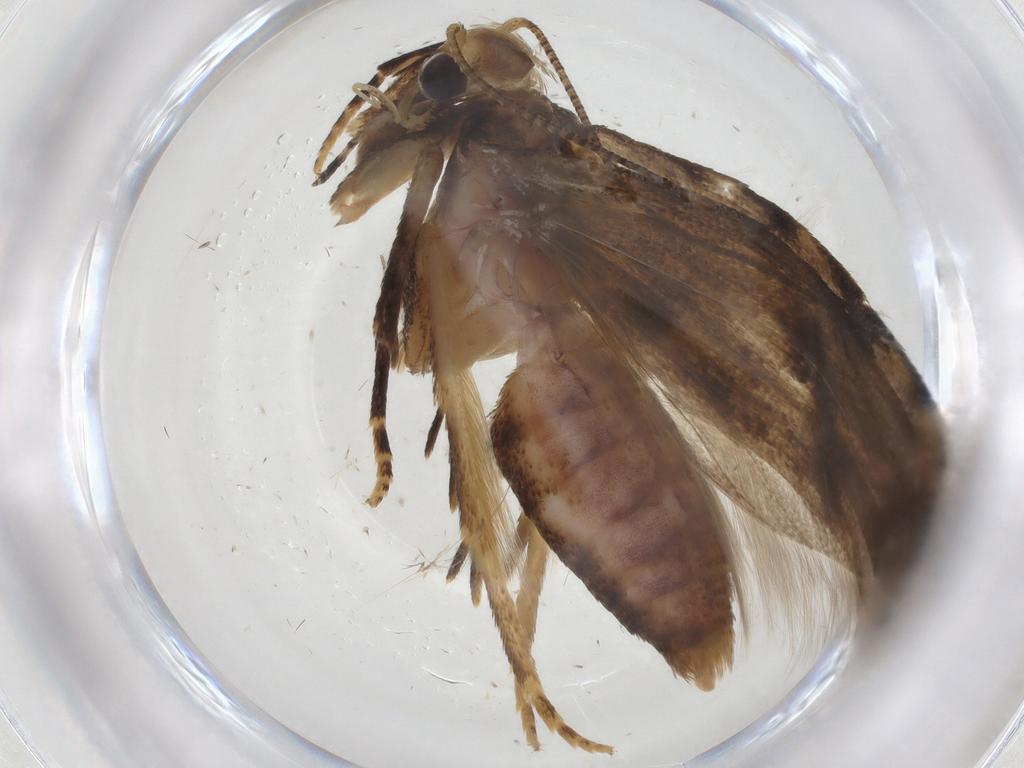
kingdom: Animalia
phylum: Arthropoda
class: Insecta
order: Lepidoptera
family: Gelechiidae
